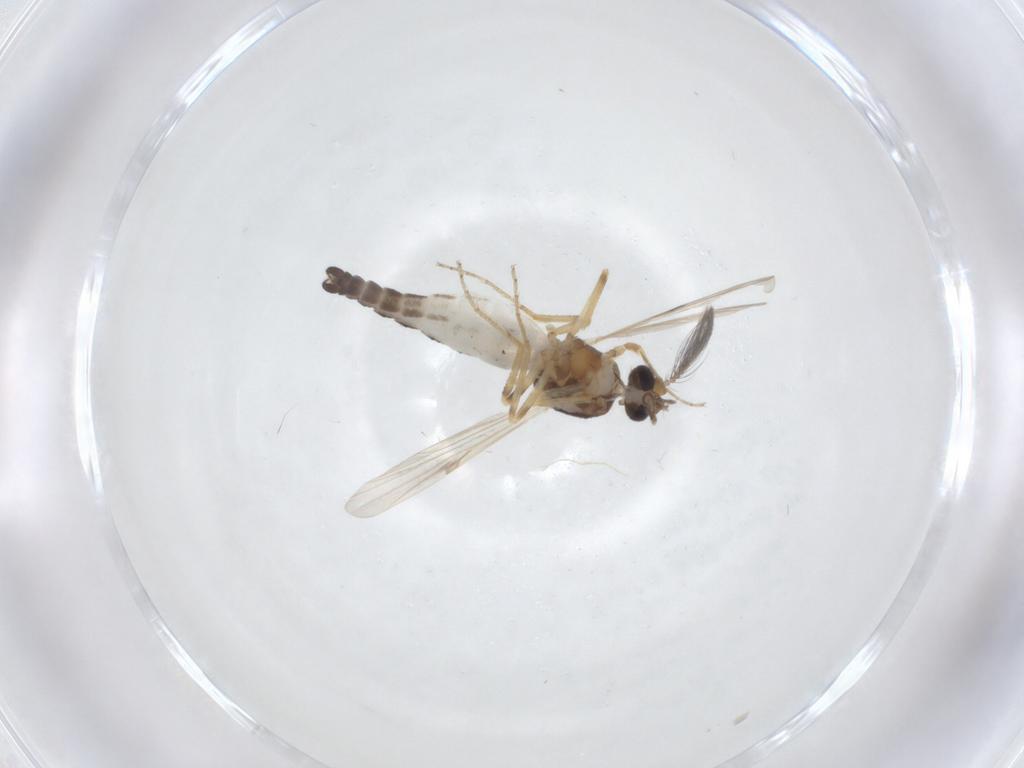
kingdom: Animalia
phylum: Arthropoda
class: Insecta
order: Diptera
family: Ceratopogonidae
